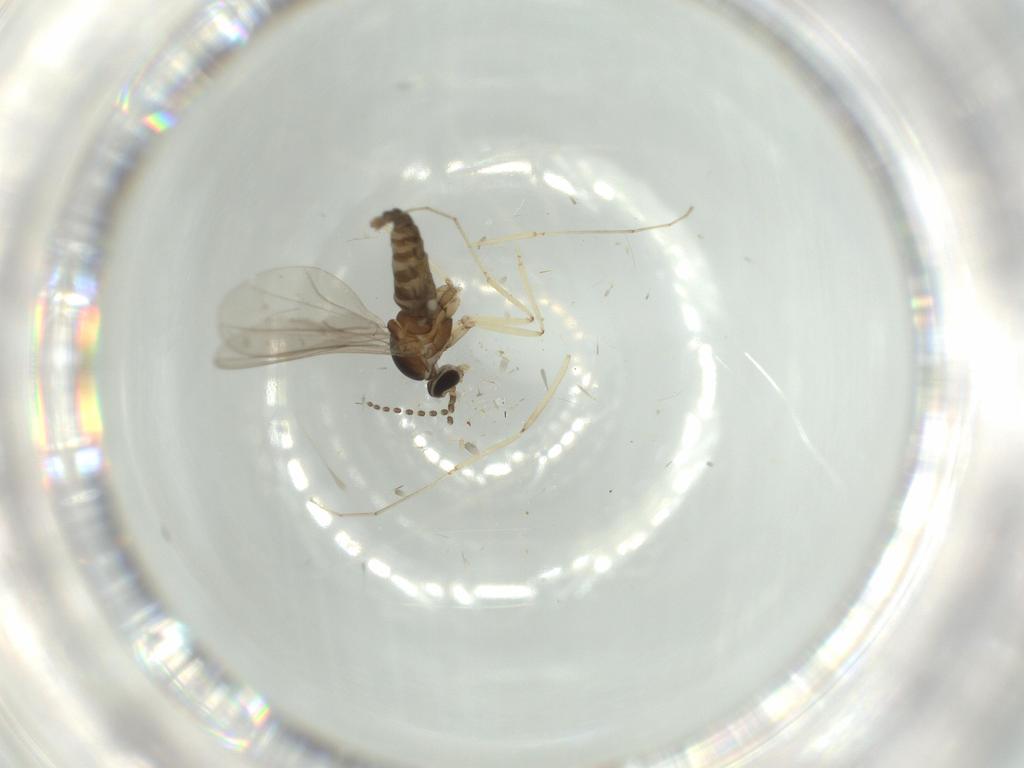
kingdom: Animalia
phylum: Arthropoda
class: Insecta
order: Diptera
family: Cecidomyiidae
